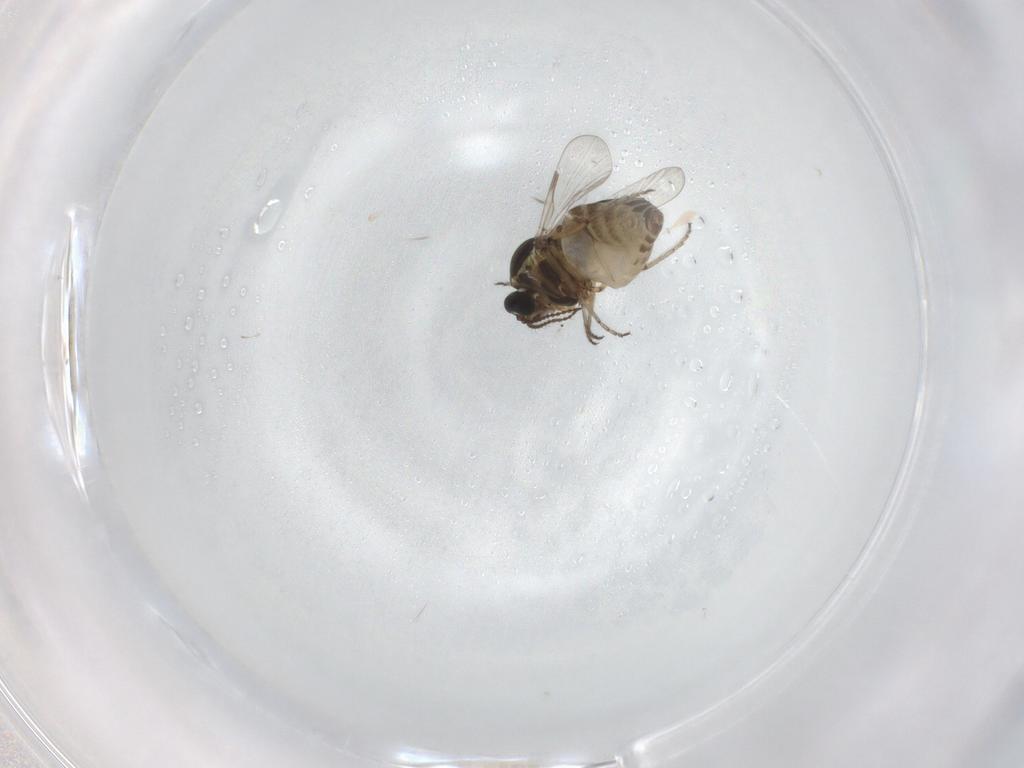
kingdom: Animalia
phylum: Arthropoda
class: Insecta
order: Diptera
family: Ceratopogonidae
